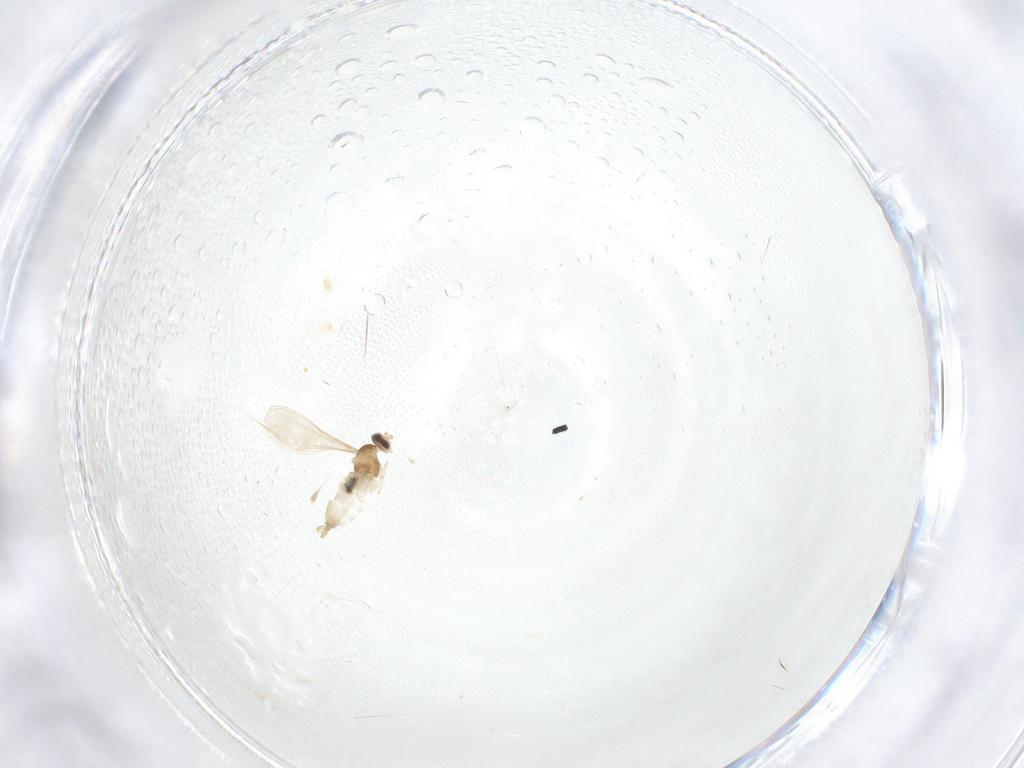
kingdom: Animalia
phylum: Arthropoda
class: Insecta
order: Diptera
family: Cecidomyiidae
